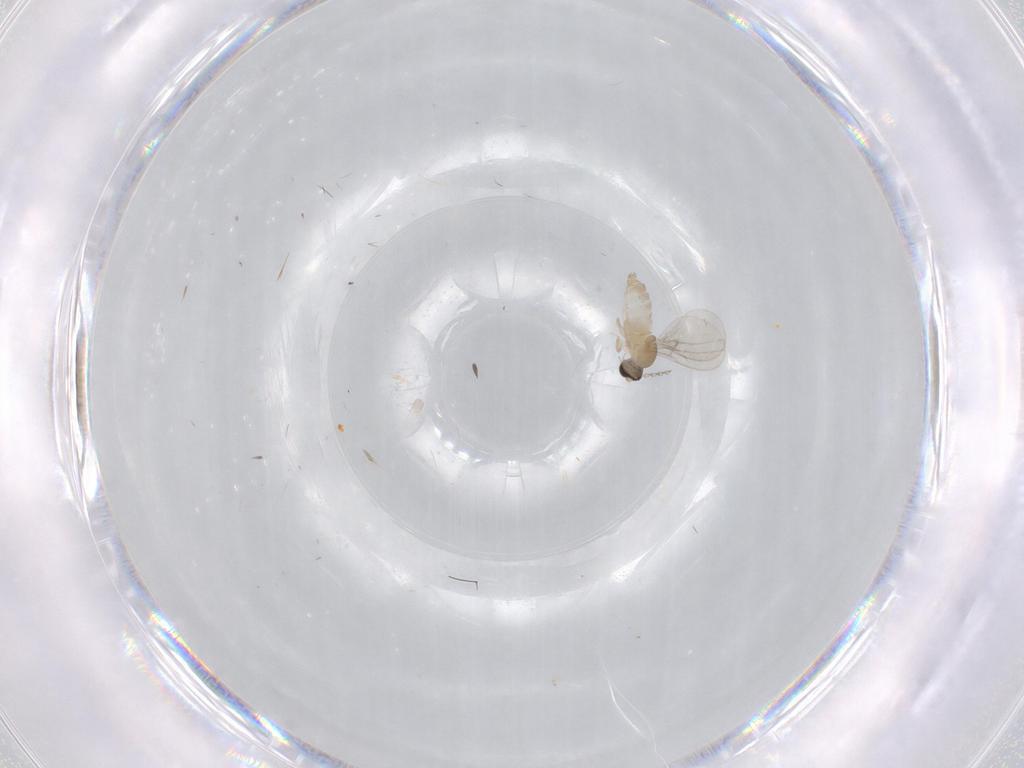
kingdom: Animalia
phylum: Arthropoda
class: Insecta
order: Diptera
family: Cecidomyiidae
